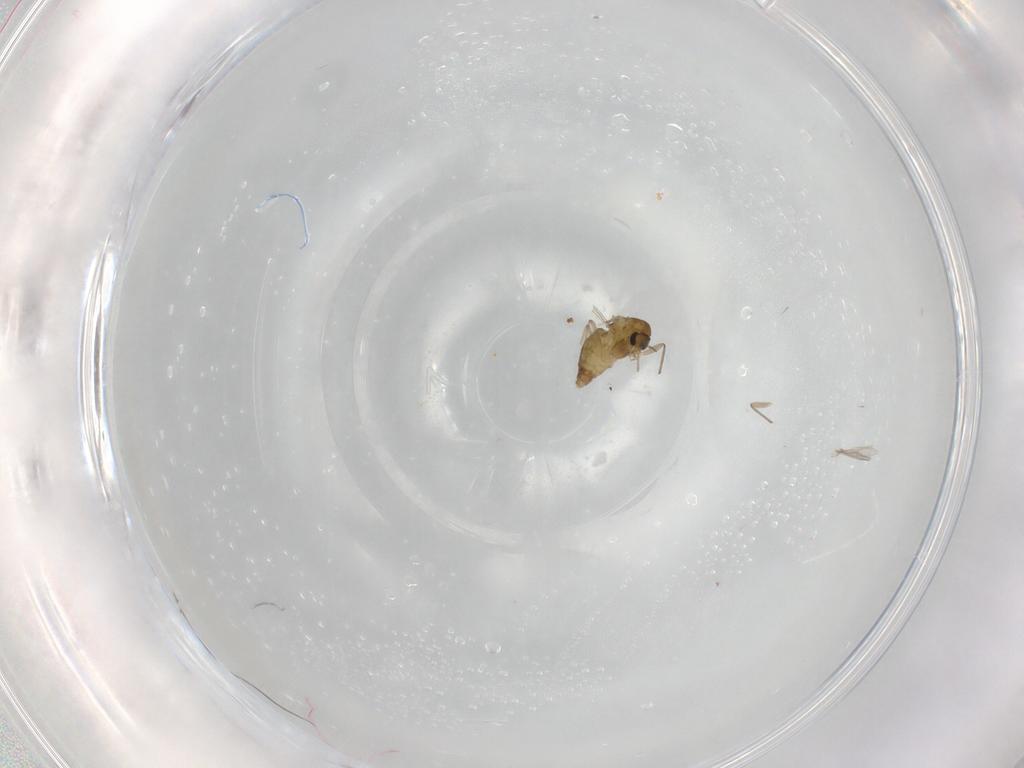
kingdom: Animalia
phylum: Arthropoda
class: Insecta
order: Diptera
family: Chironomidae
